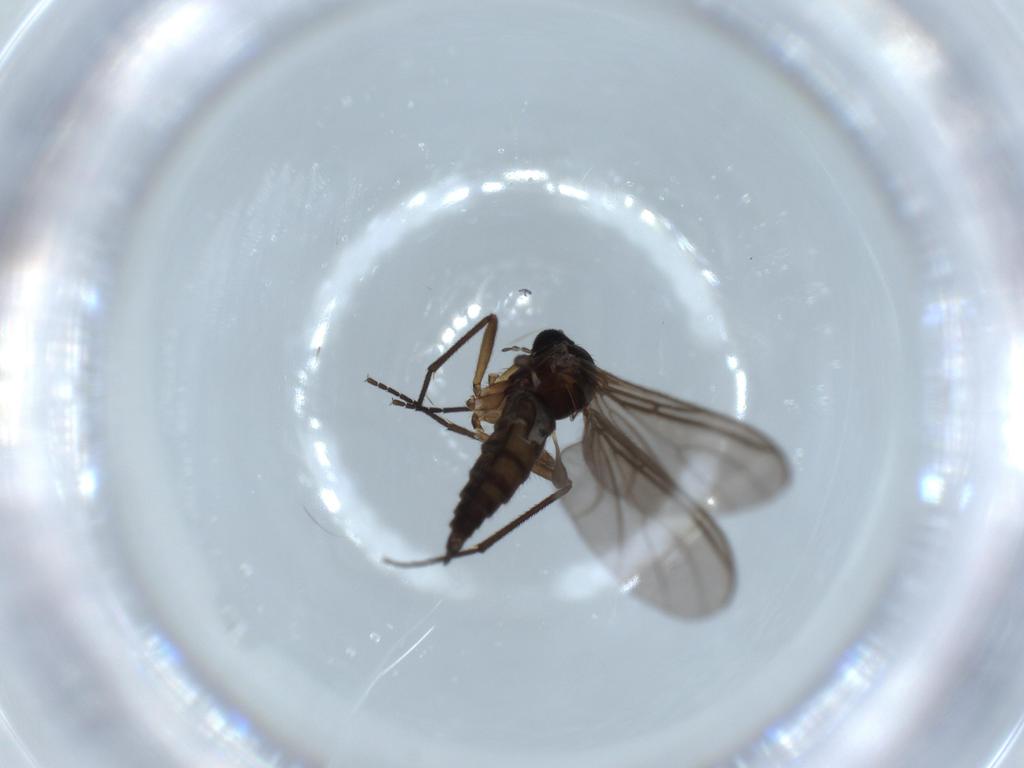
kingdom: Animalia
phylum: Arthropoda
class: Insecta
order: Diptera
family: Sciaridae
